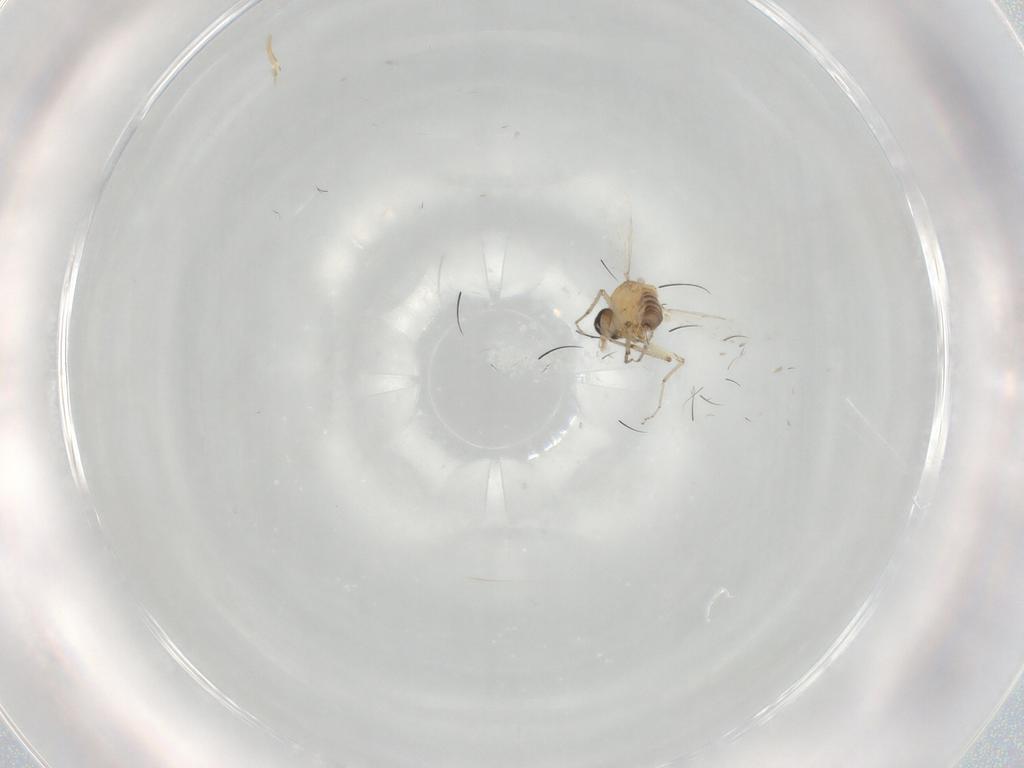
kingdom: Animalia
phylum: Arthropoda
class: Insecta
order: Diptera
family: Ceratopogonidae
